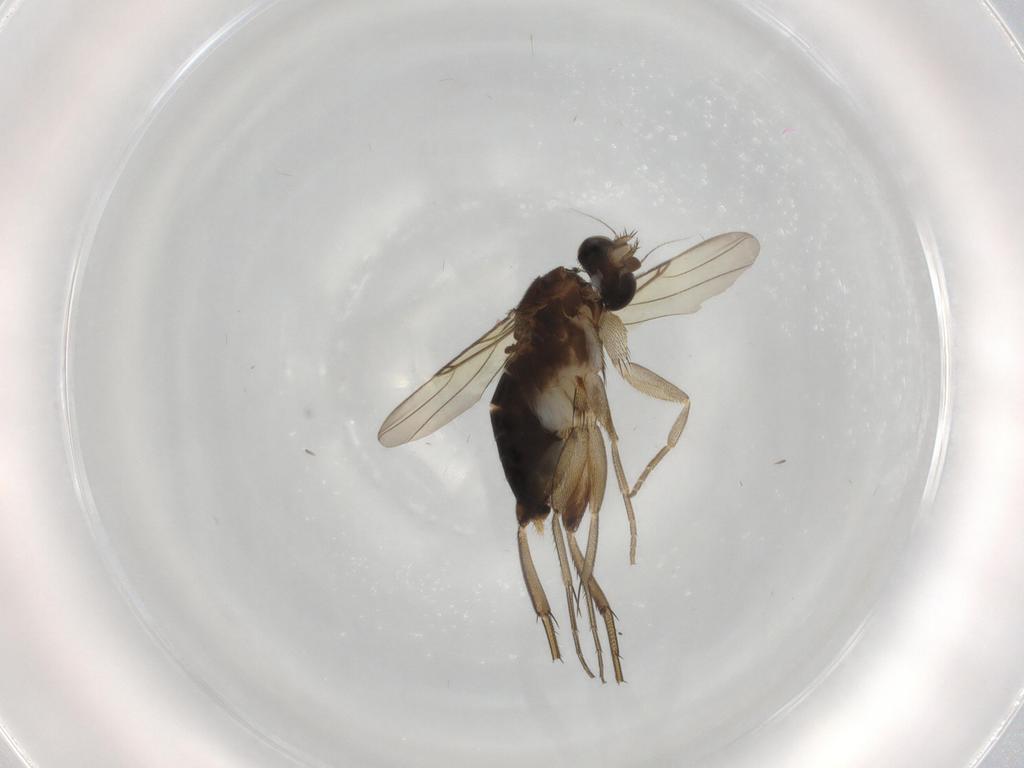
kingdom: Animalia
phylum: Arthropoda
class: Insecta
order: Diptera
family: Phoridae
